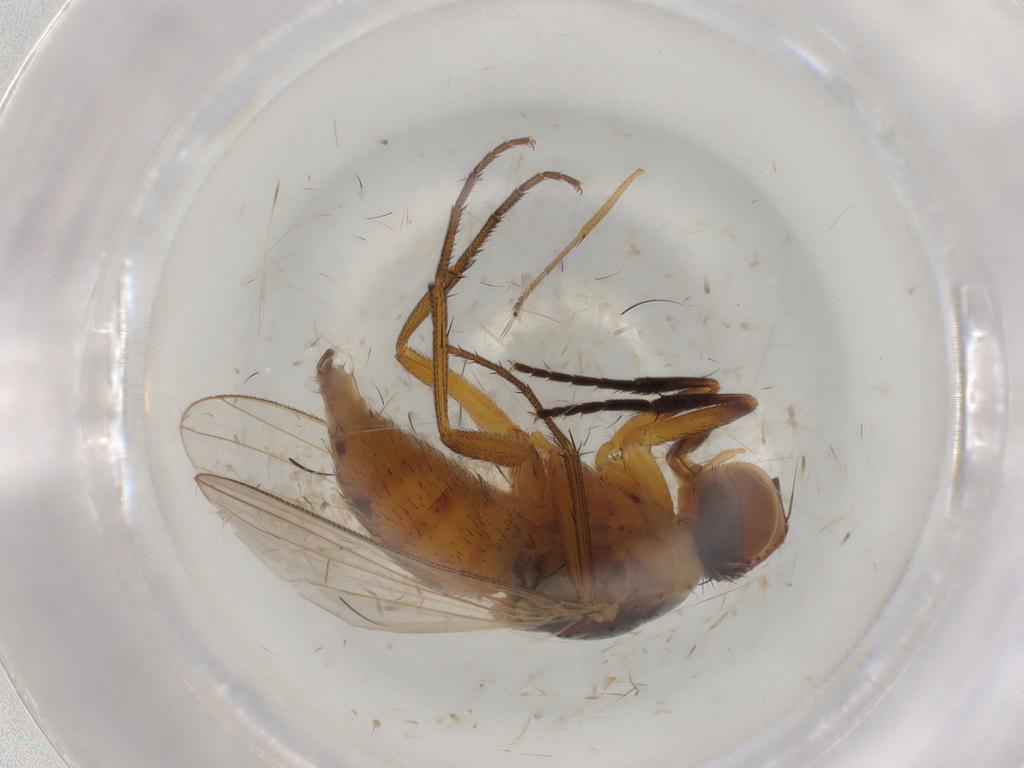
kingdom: Animalia
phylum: Arthropoda
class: Insecta
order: Diptera
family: Muscidae
